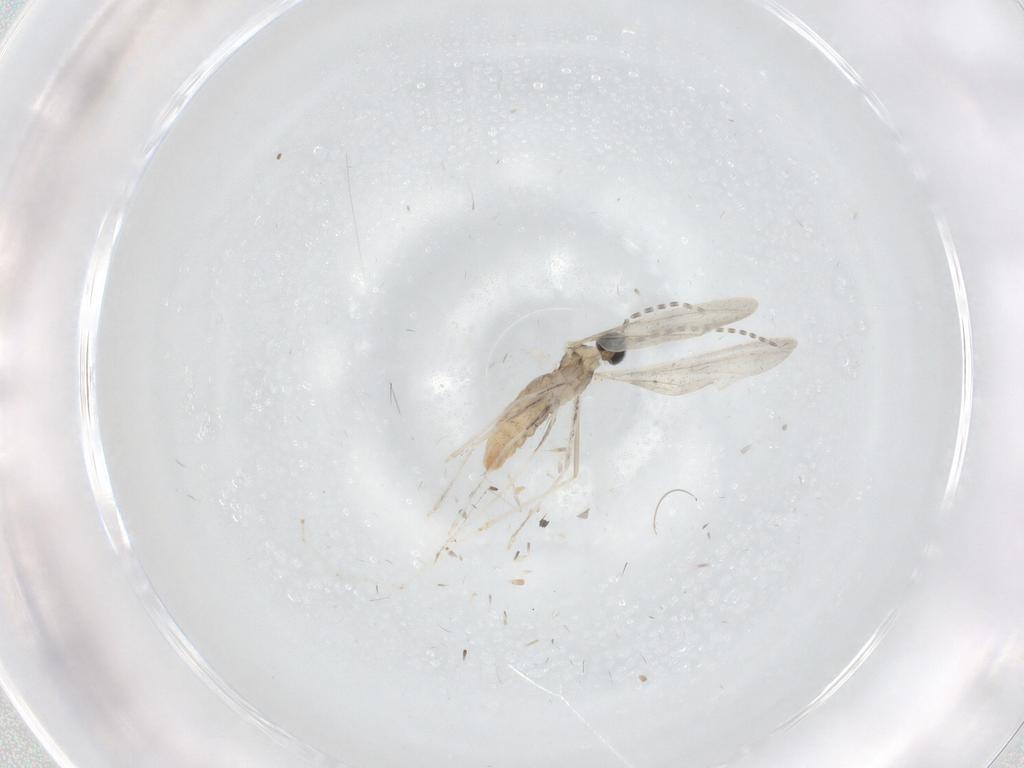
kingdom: Animalia
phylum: Arthropoda
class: Insecta
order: Diptera
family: Cecidomyiidae
